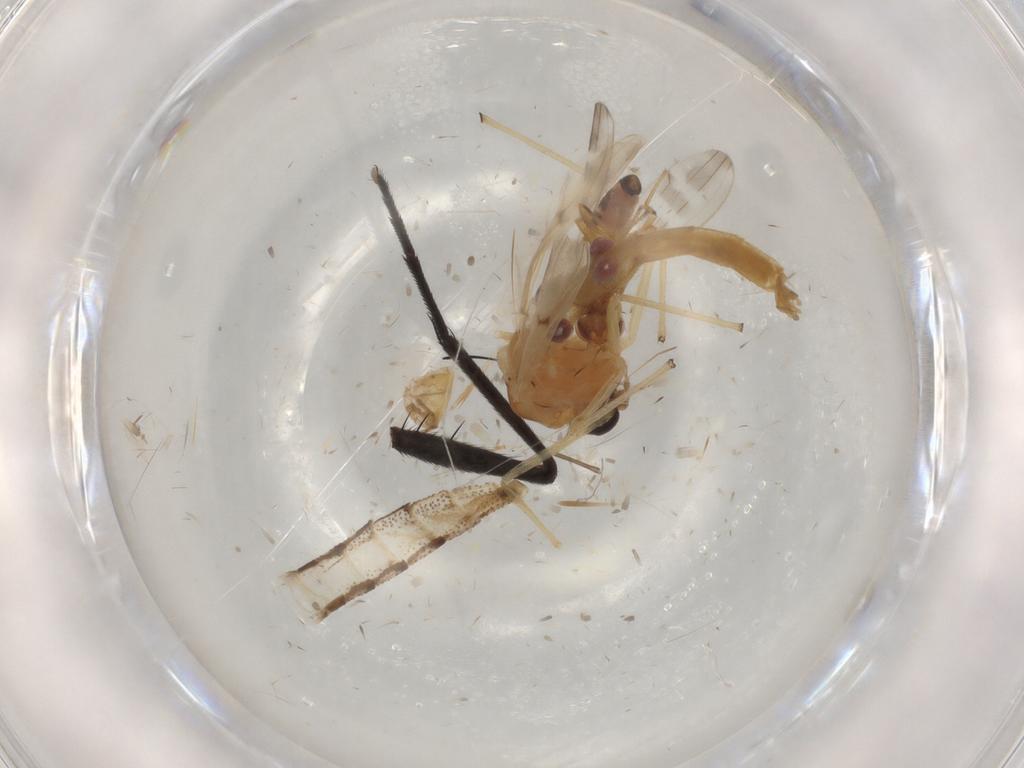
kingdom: Animalia
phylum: Arthropoda
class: Insecta
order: Diptera
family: Chironomidae
